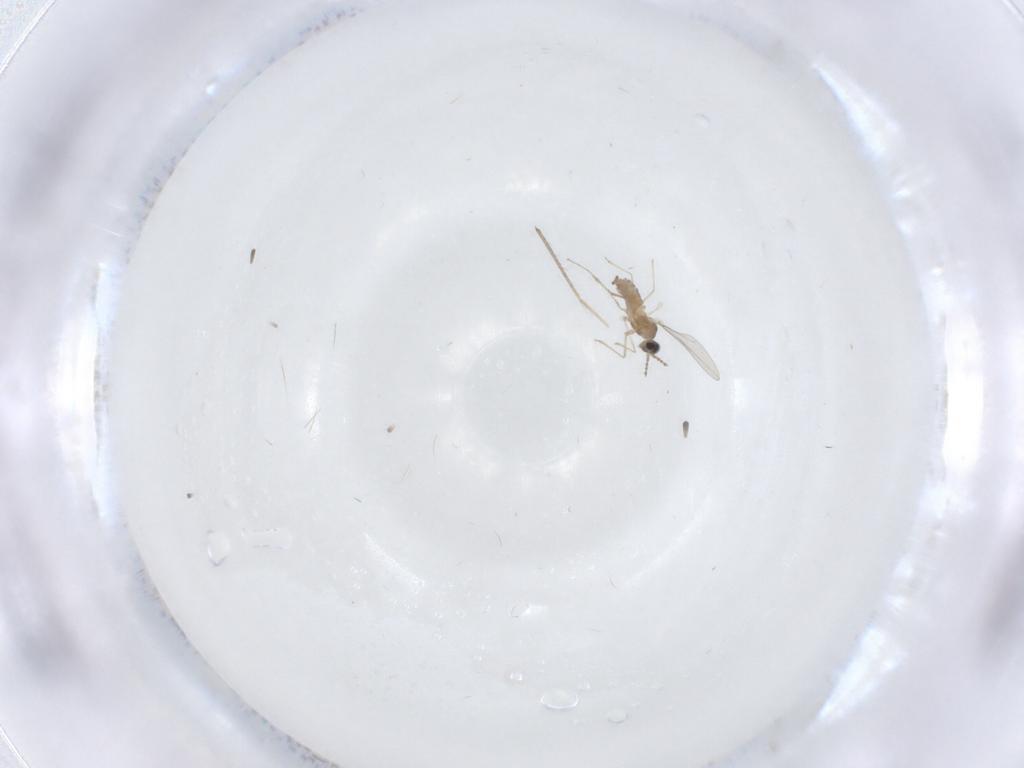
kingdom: Animalia
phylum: Arthropoda
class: Insecta
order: Diptera
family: Cecidomyiidae
